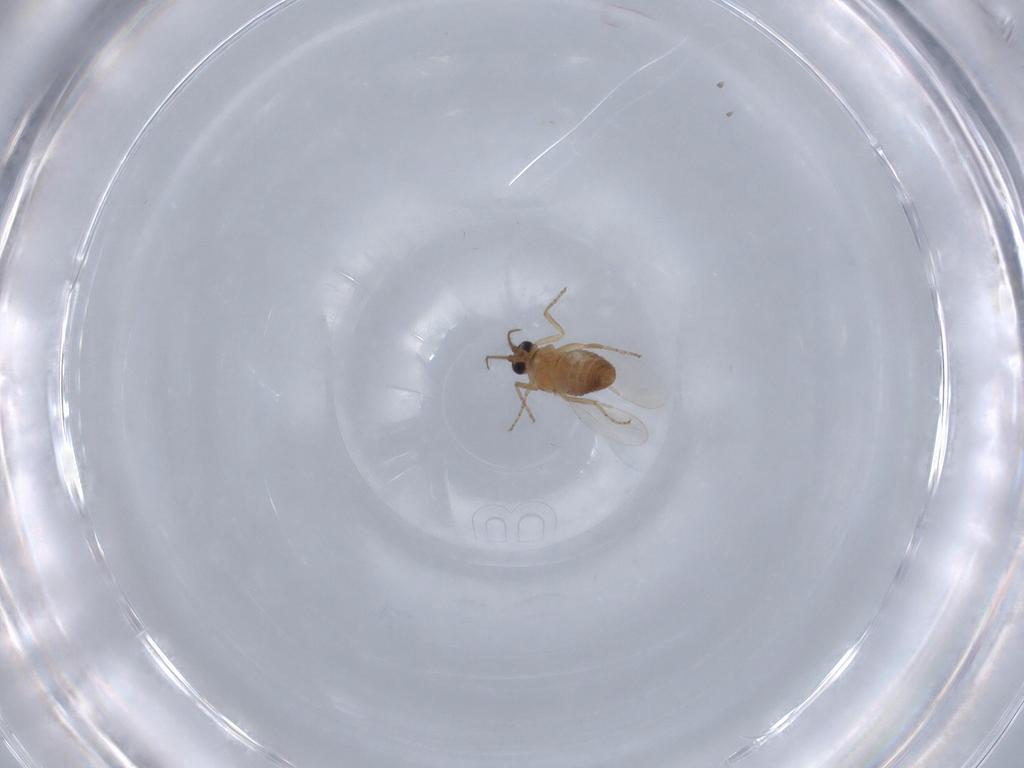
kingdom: Animalia
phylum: Arthropoda
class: Insecta
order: Diptera
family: Ceratopogonidae
